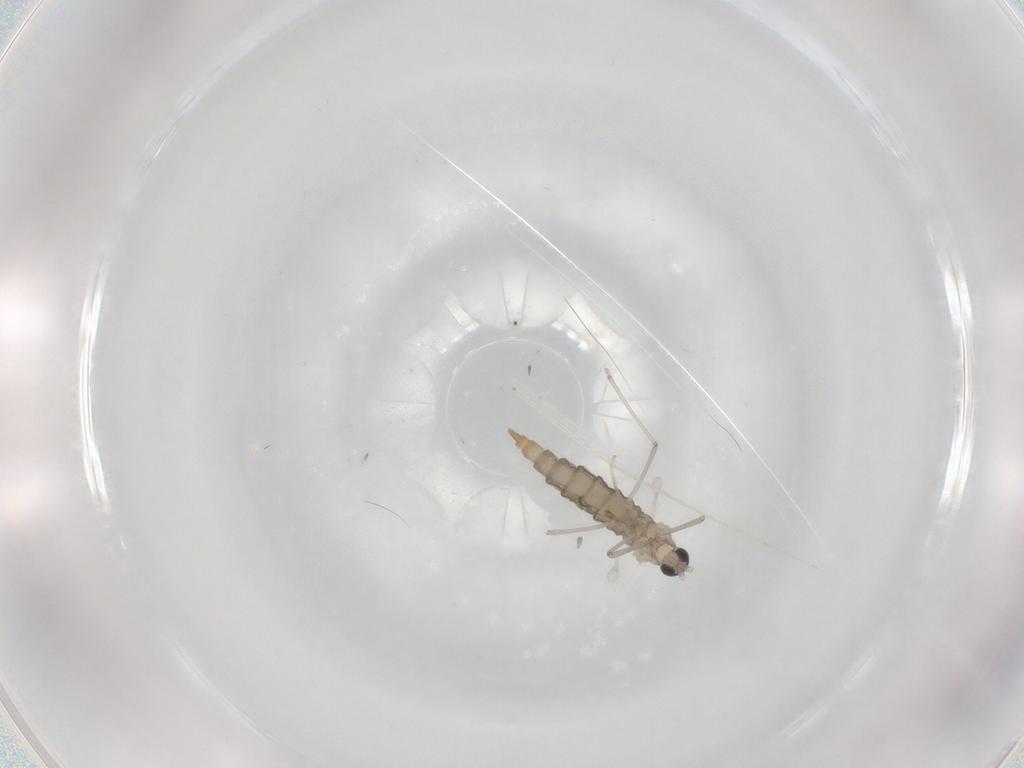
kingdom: Animalia
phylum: Arthropoda
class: Insecta
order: Diptera
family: Cecidomyiidae
